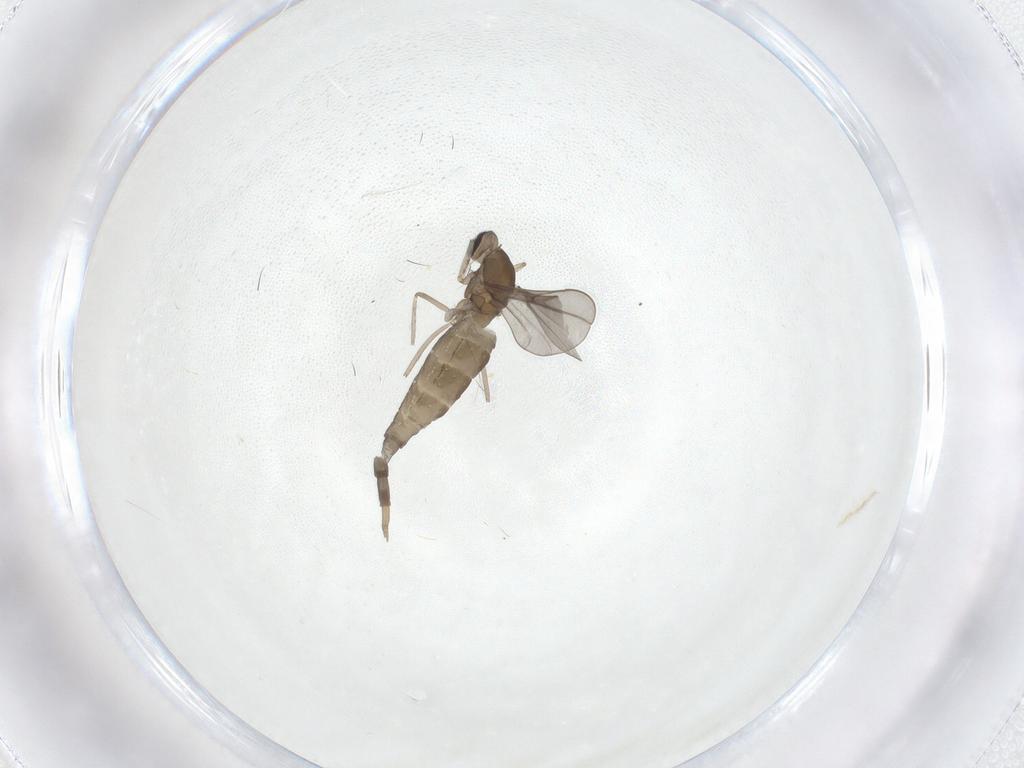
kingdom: Animalia
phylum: Arthropoda
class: Insecta
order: Diptera
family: Cecidomyiidae
